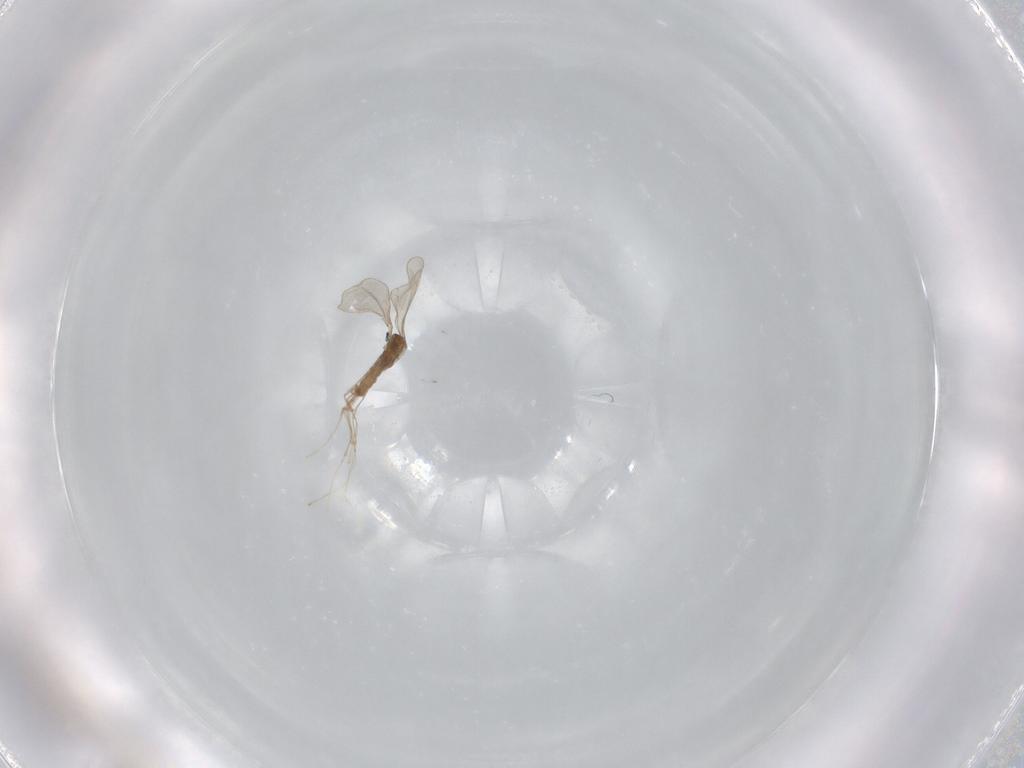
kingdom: Animalia
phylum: Arthropoda
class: Insecta
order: Diptera
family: Cecidomyiidae
